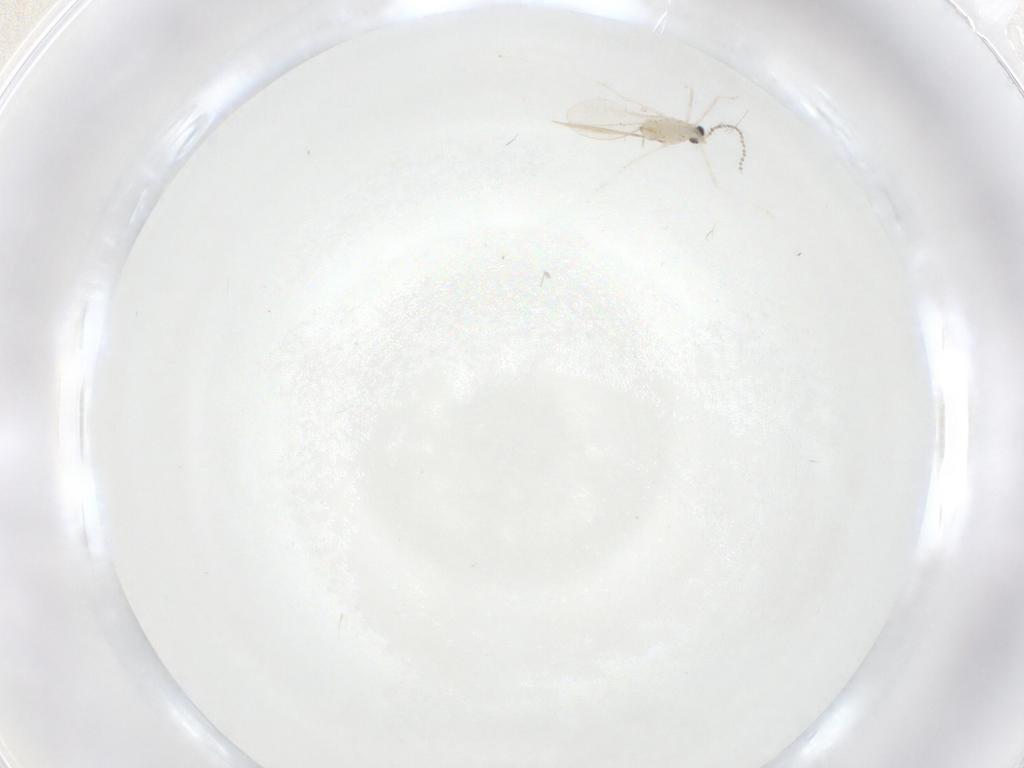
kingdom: Animalia
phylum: Arthropoda
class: Insecta
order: Diptera
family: Cecidomyiidae
